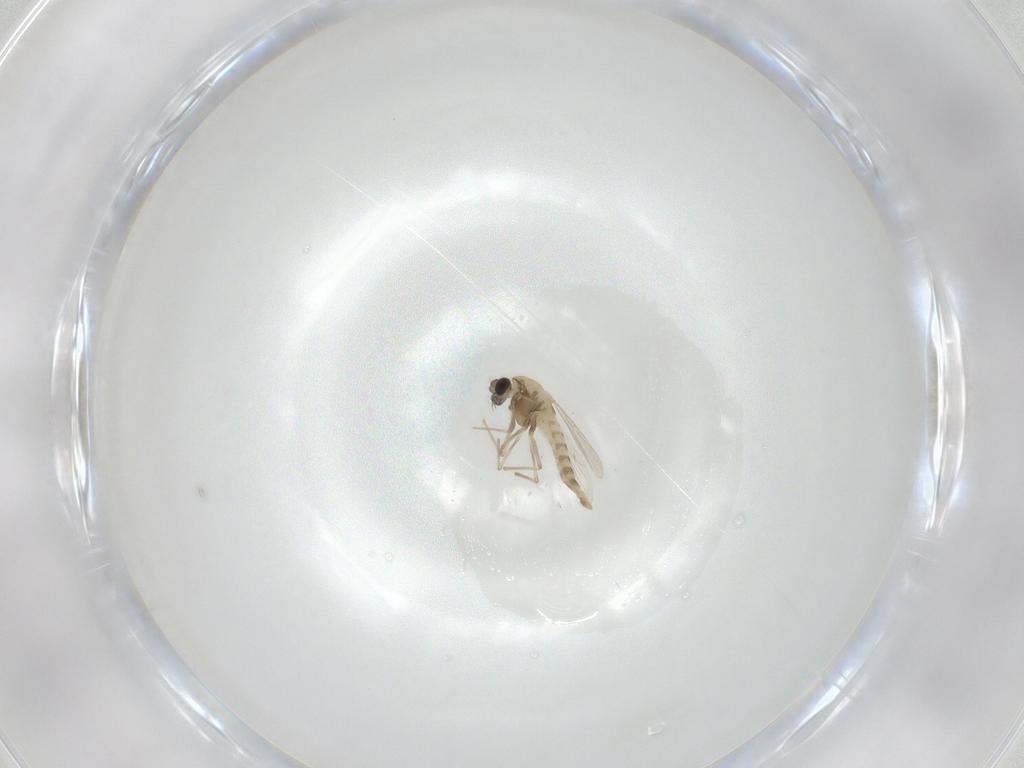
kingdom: Animalia
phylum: Arthropoda
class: Insecta
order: Diptera
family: Chironomidae
